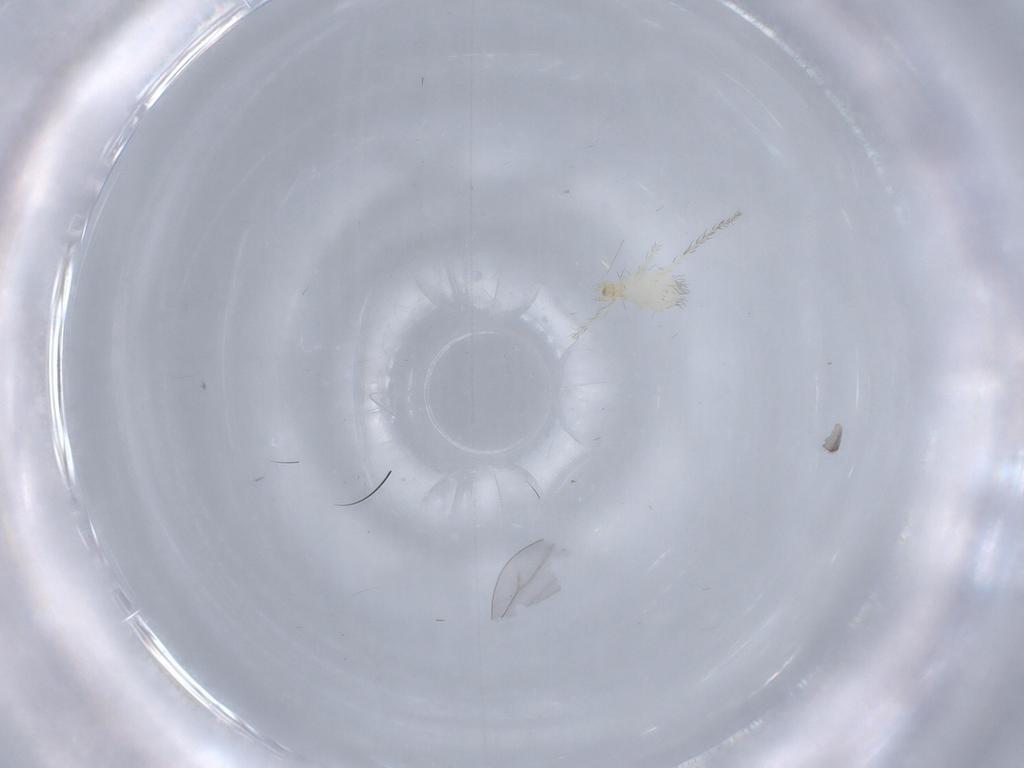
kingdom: Animalia
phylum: Arthropoda
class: Arachnida
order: Trombidiformes
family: Erythraeidae
